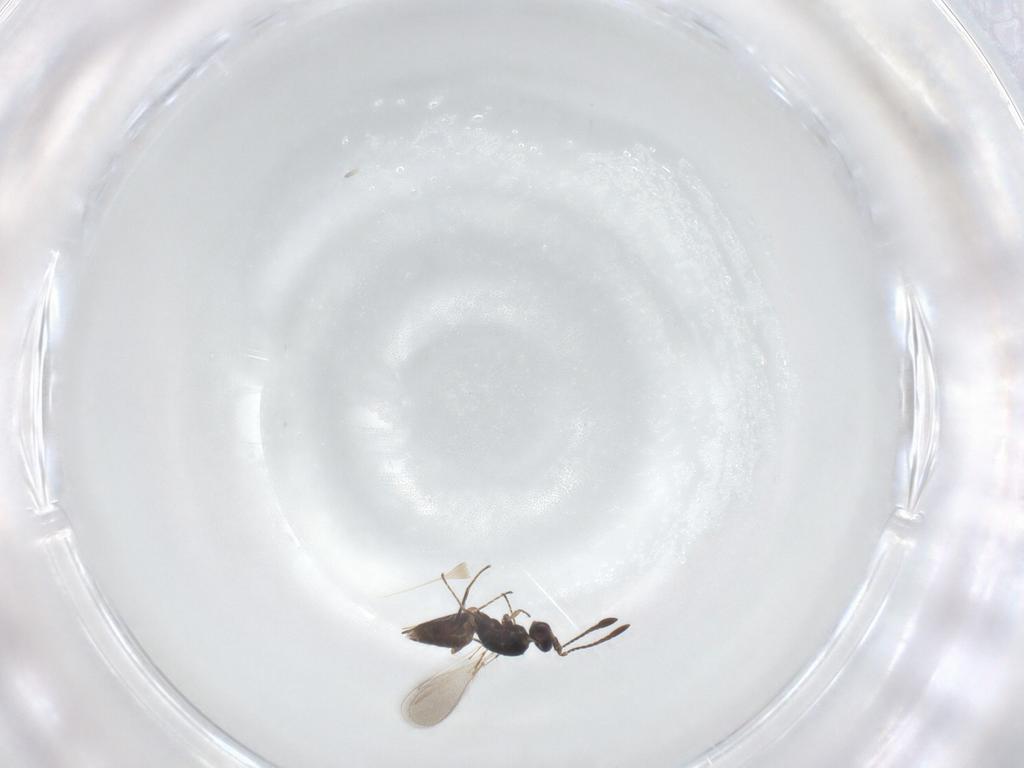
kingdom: Animalia
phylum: Arthropoda
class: Insecta
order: Hymenoptera
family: Mymaridae
